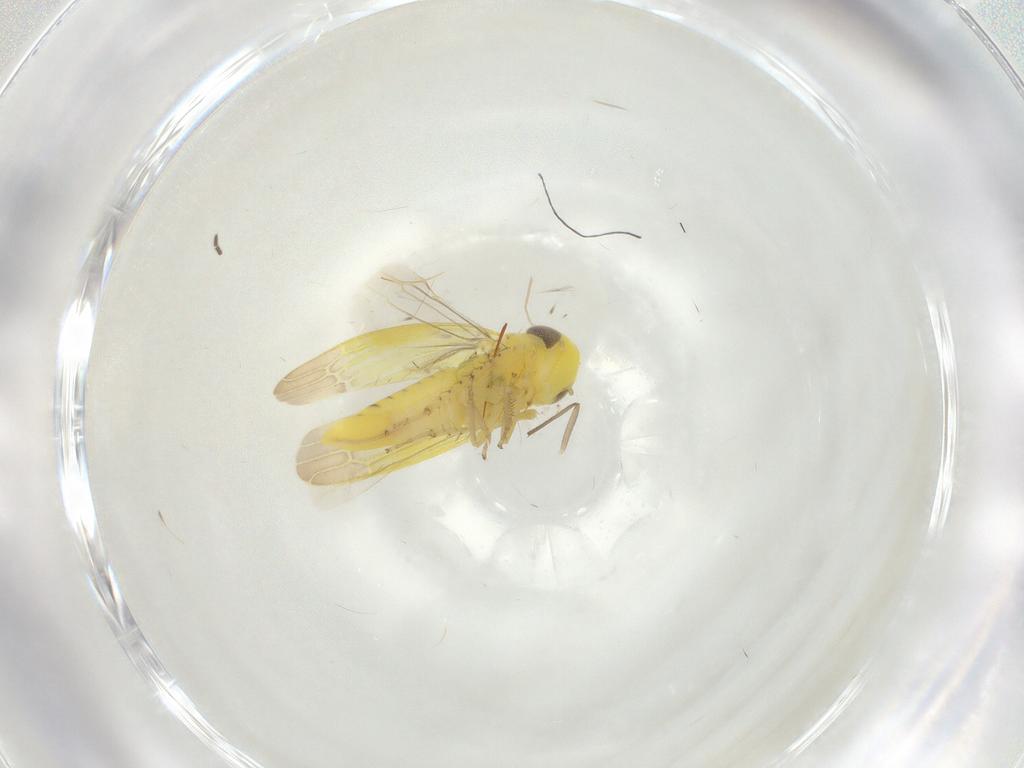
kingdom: Animalia
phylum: Arthropoda
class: Insecta
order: Hemiptera
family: Cicadellidae
